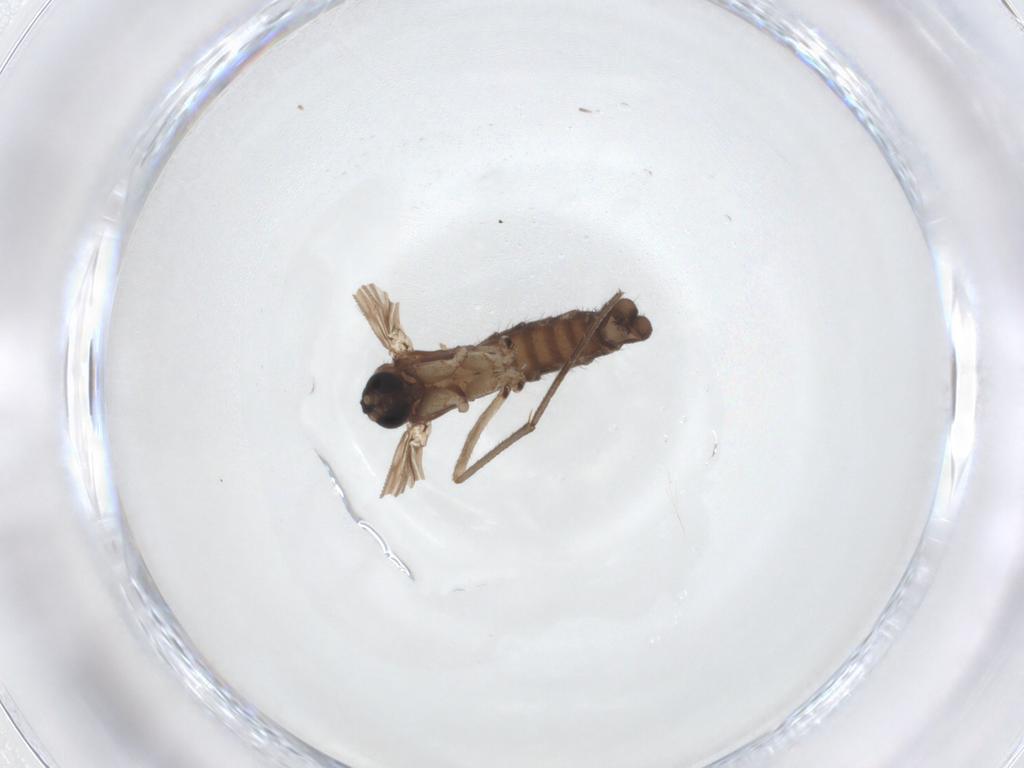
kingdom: Animalia
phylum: Arthropoda
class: Insecta
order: Diptera
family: Sciaridae
